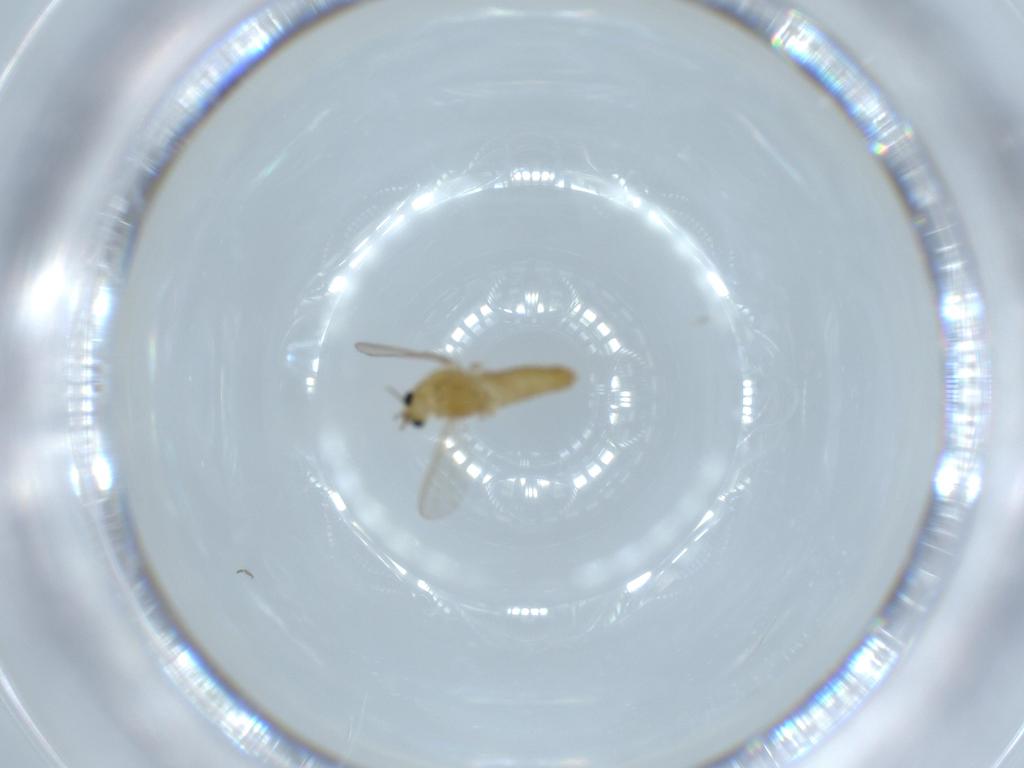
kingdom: Animalia
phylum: Arthropoda
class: Insecta
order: Diptera
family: Chironomidae
